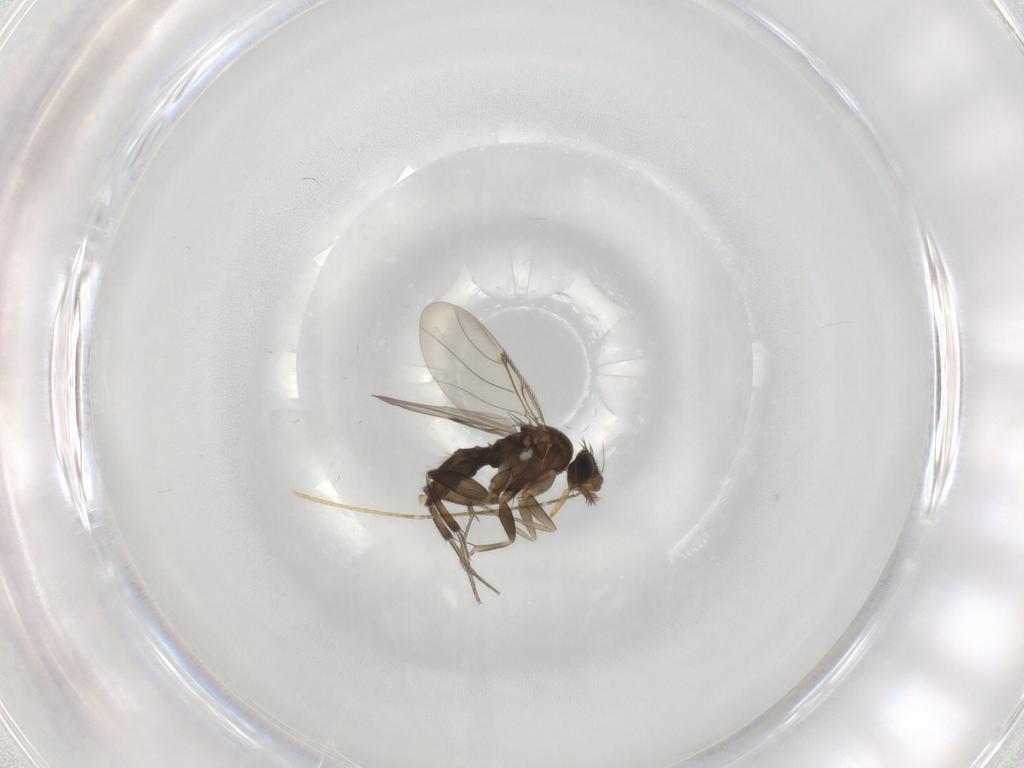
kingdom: Animalia
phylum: Arthropoda
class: Insecta
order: Diptera
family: Phoridae
